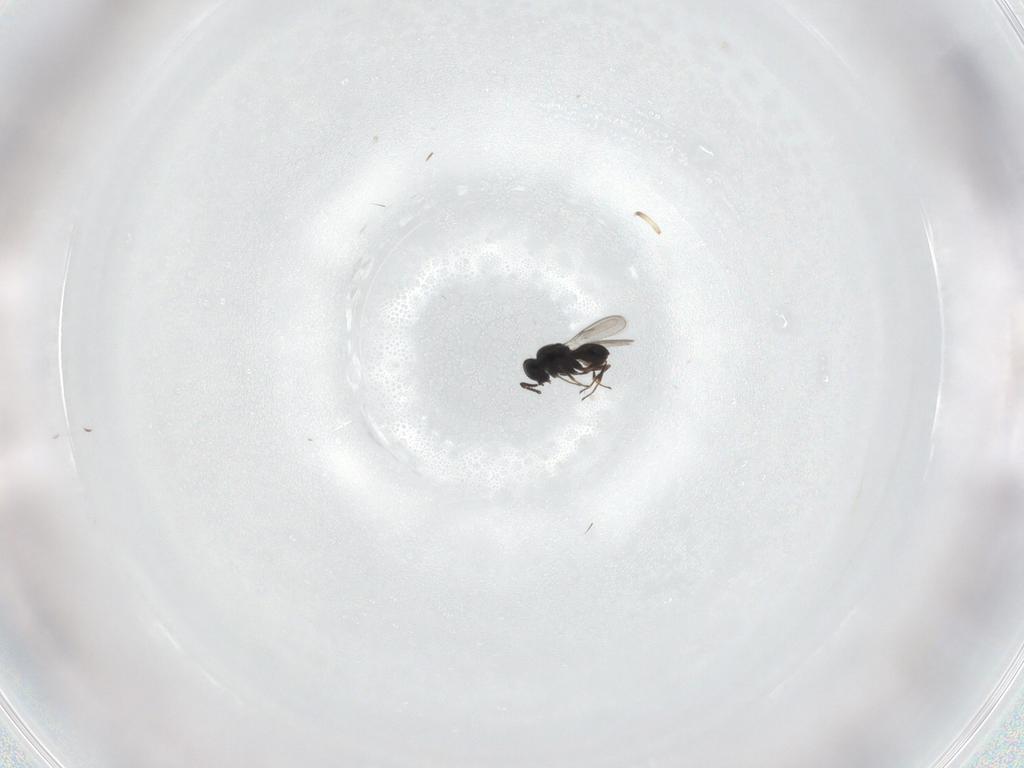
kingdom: Animalia
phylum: Arthropoda
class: Insecta
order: Hymenoptera
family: Scelionidae
